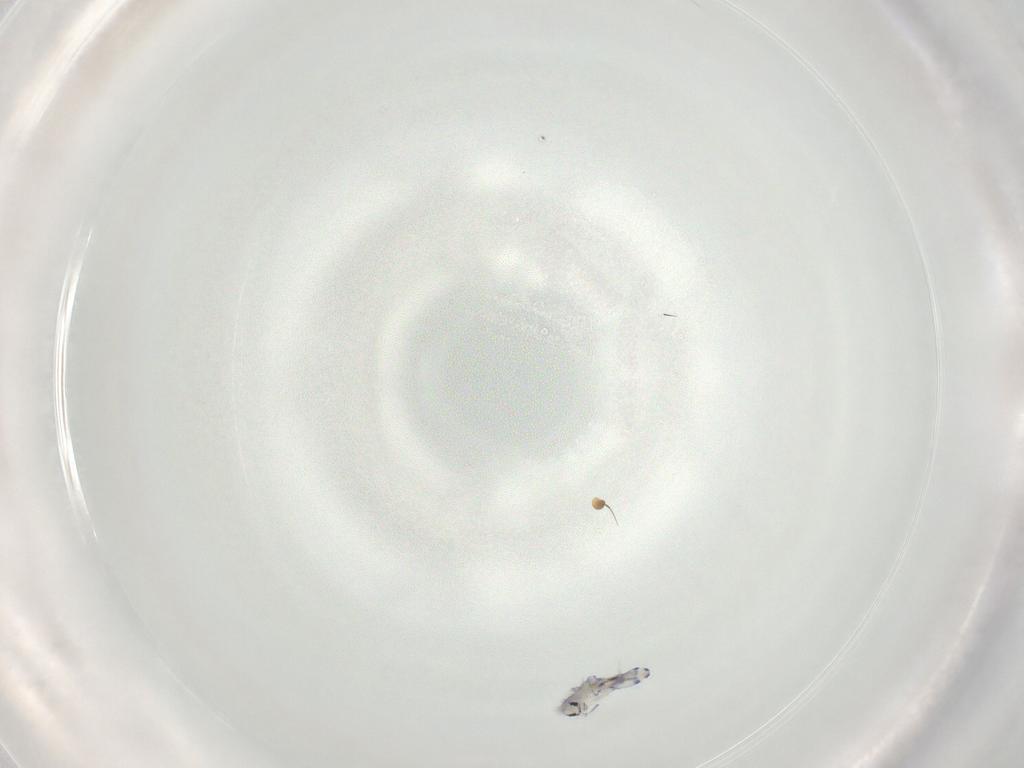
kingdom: Animalia
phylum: Arthropoda
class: Collembola
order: Entomobryomorpha
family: Entomobryidae
